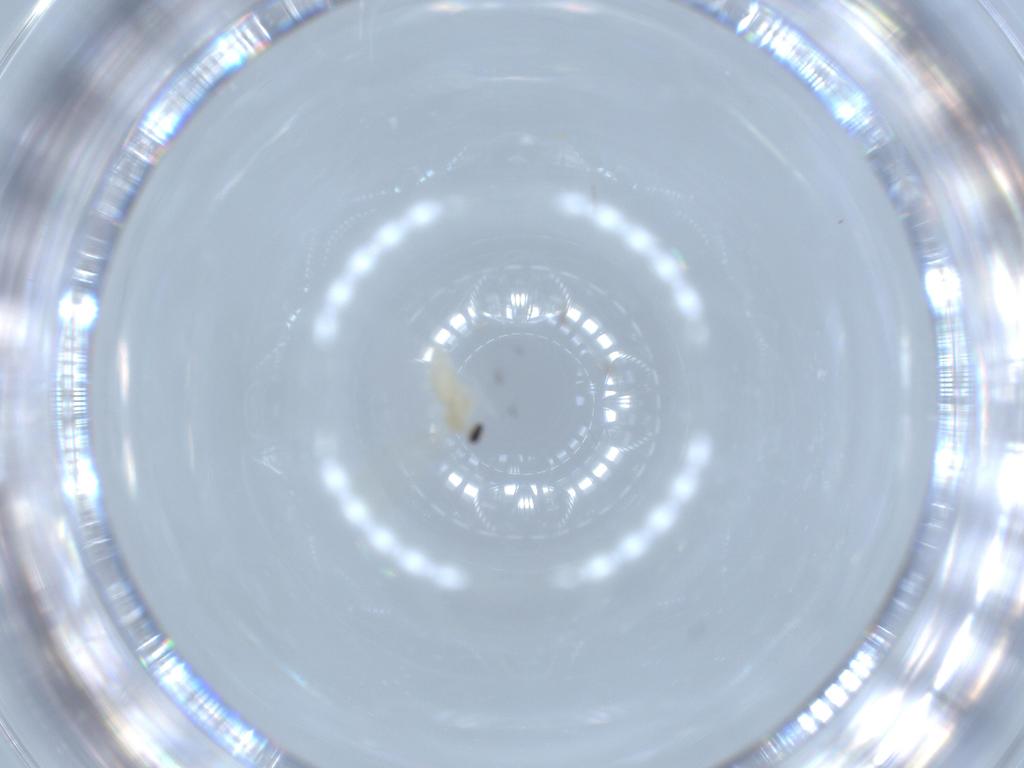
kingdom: Animalia
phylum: Arthropoda
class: Insecta
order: Diptera
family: Cecidomyiidae
